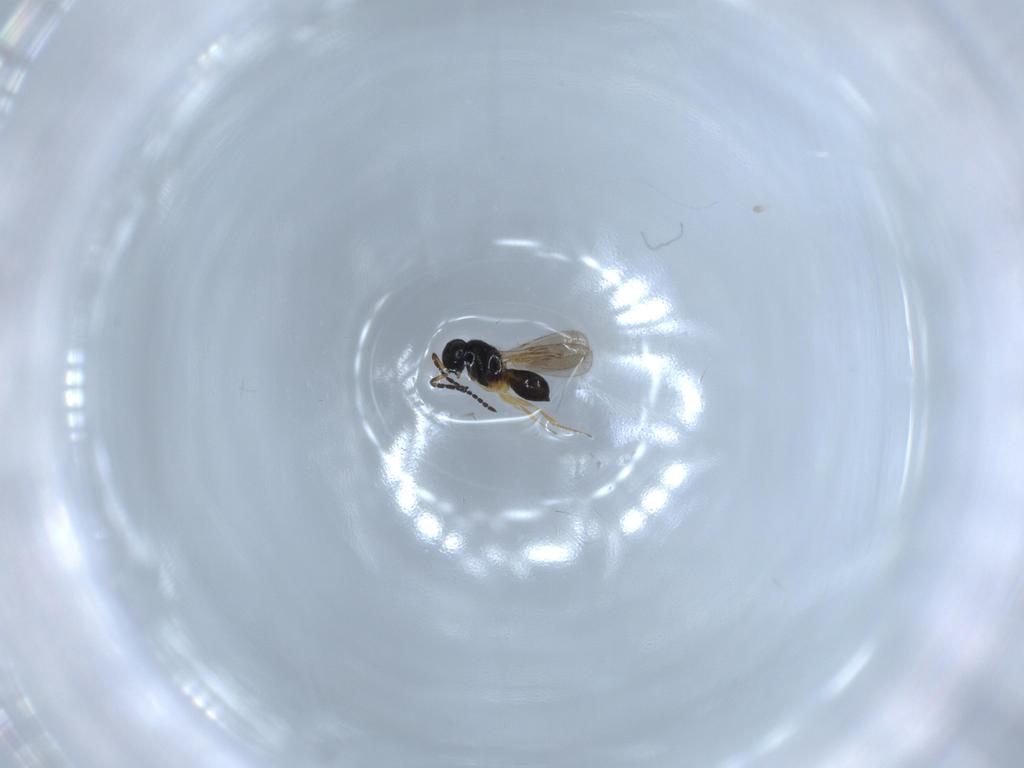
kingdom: Animalia
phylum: Arthropoda
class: Insecta
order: Hymenoptera
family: Scelionidae
